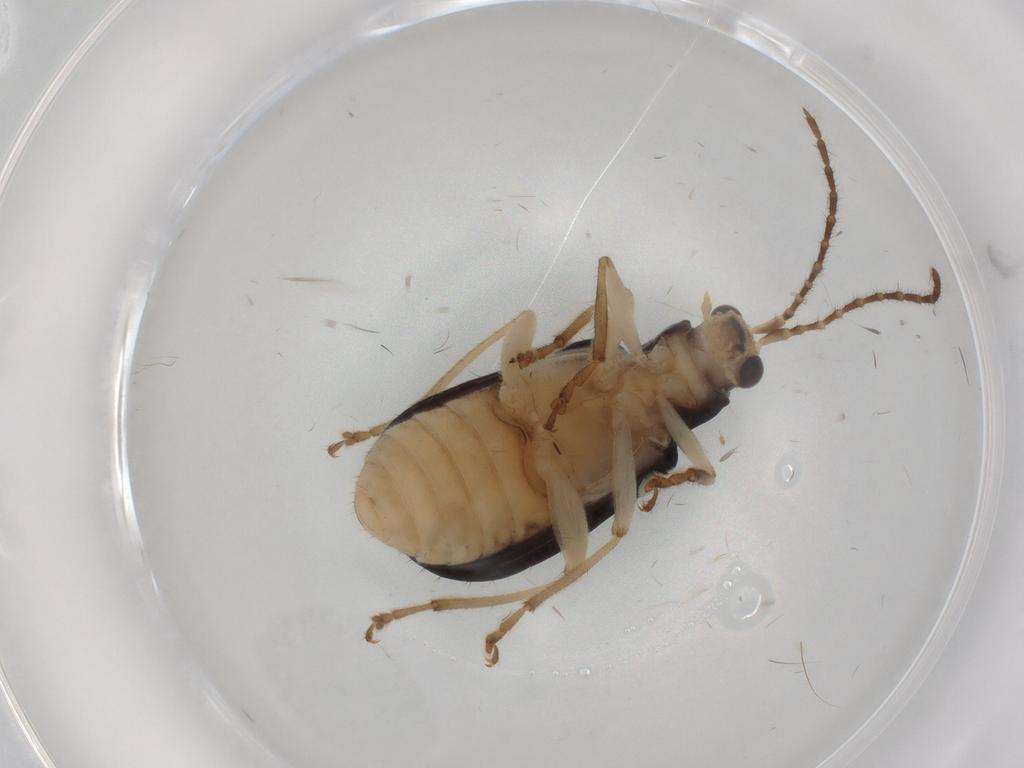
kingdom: Animalia
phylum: Arthropoda
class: Insecta
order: Coleoptera
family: Chrysomelidae
